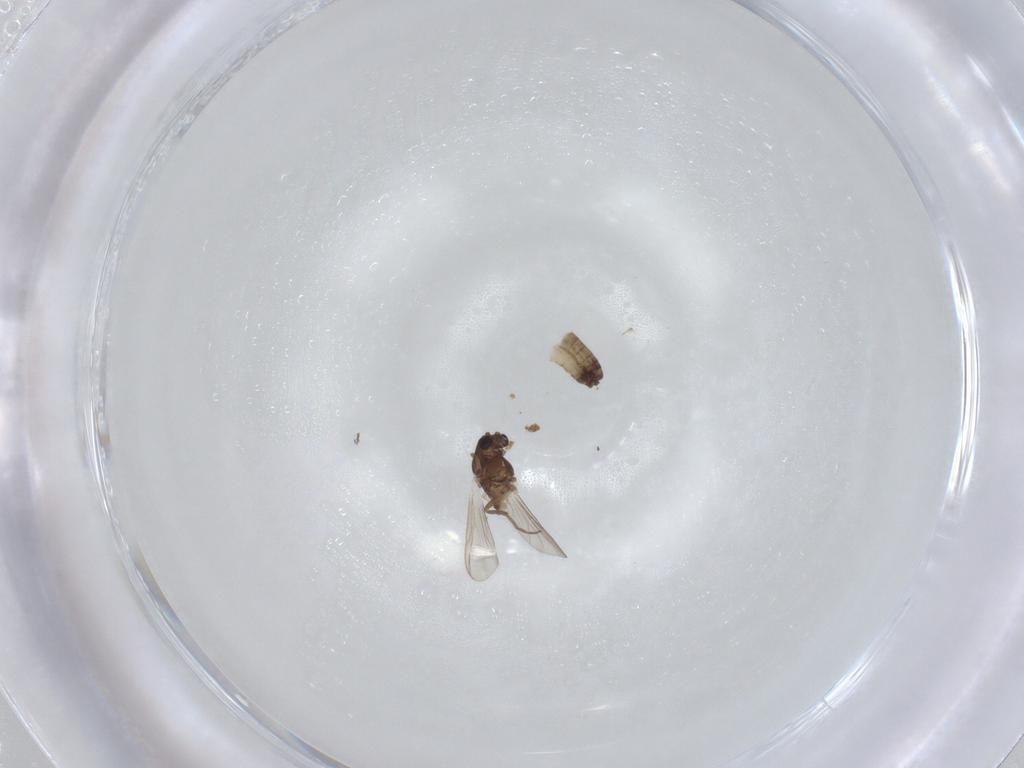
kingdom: Animalia
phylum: Arthropoda
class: Insecta
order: Diptera
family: Chironomidae
